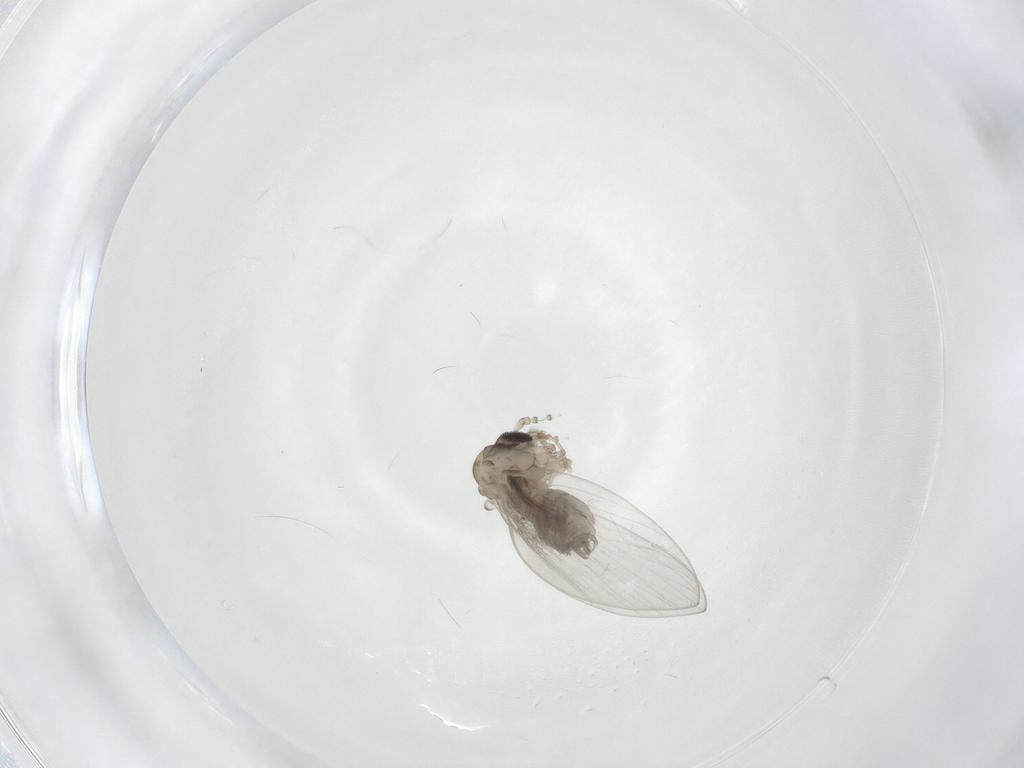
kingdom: Animalia
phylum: Arthropoda
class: Insecta
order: Diptera
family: Psychodidae
